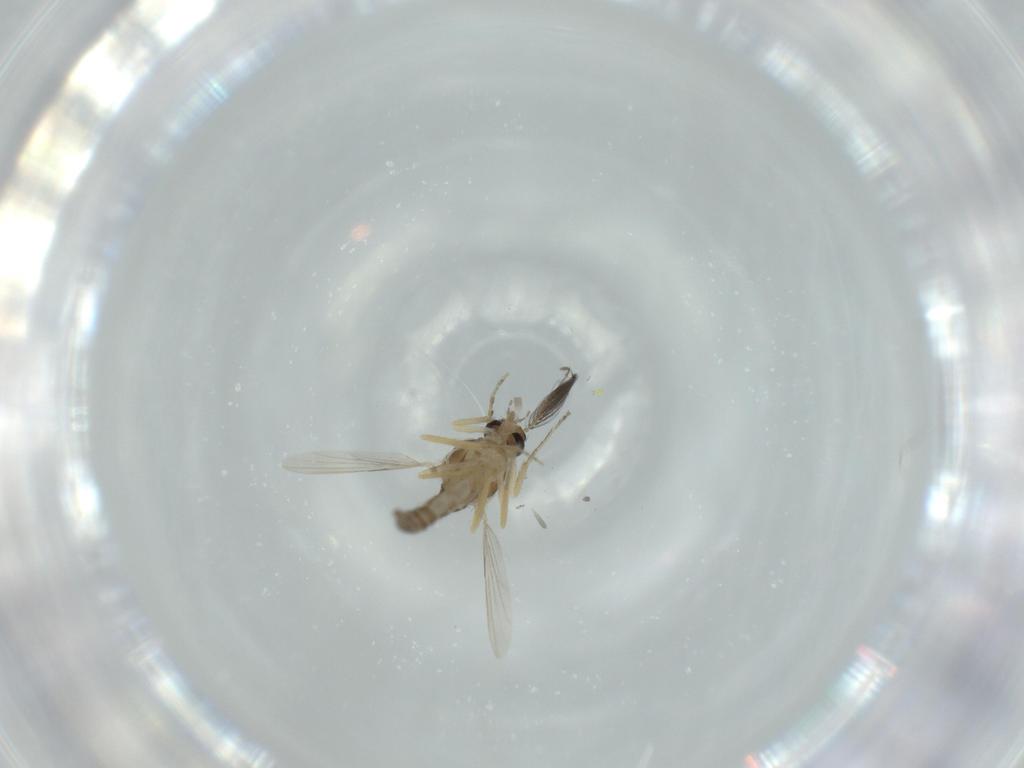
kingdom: Animalia
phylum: Arthropoda
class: Insecta
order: Diptera
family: Ceratopogonidae
